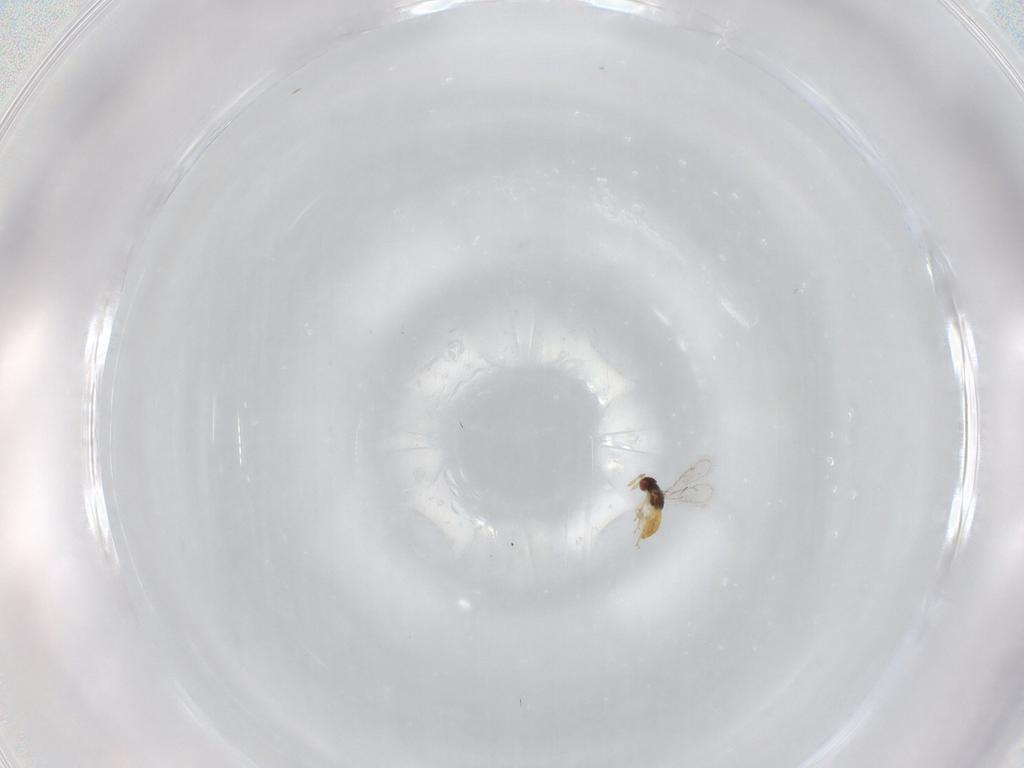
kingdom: Animalia
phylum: Arthropoda
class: Insecta
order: Hymenoptera
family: Eulophidae
